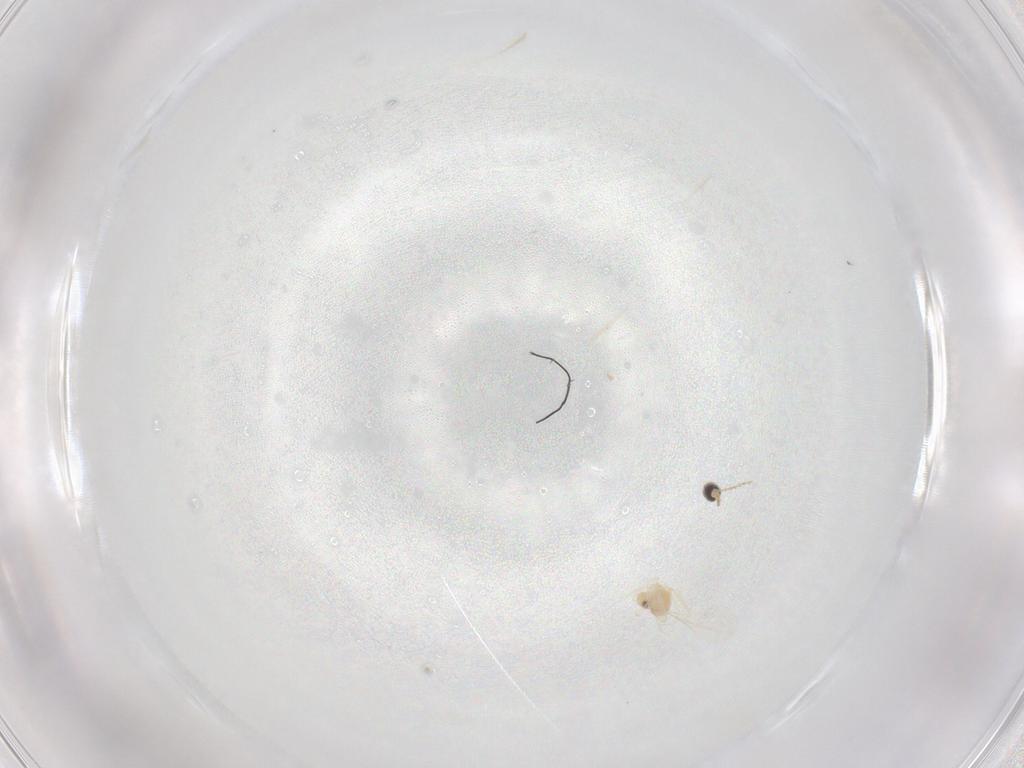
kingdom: Animalia
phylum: Arthropoda
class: Insecta
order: Diptera
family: Cecidomyiidae
